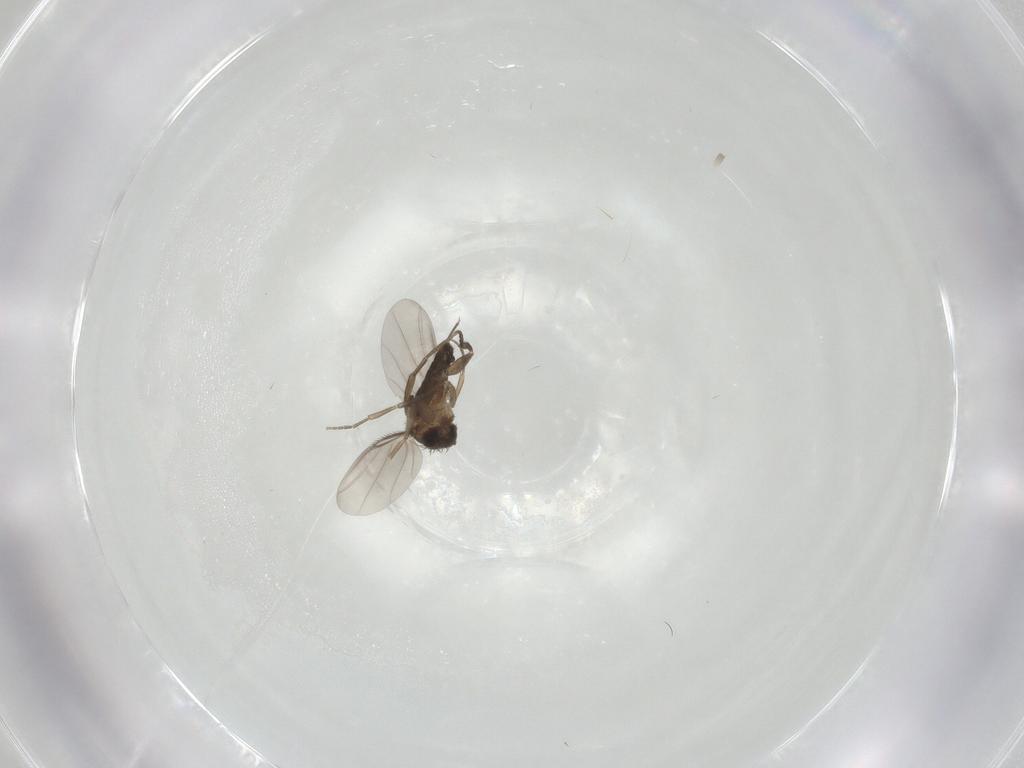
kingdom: Animalia
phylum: Arthropoda
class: Insecta
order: Diptera
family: Phoridae
